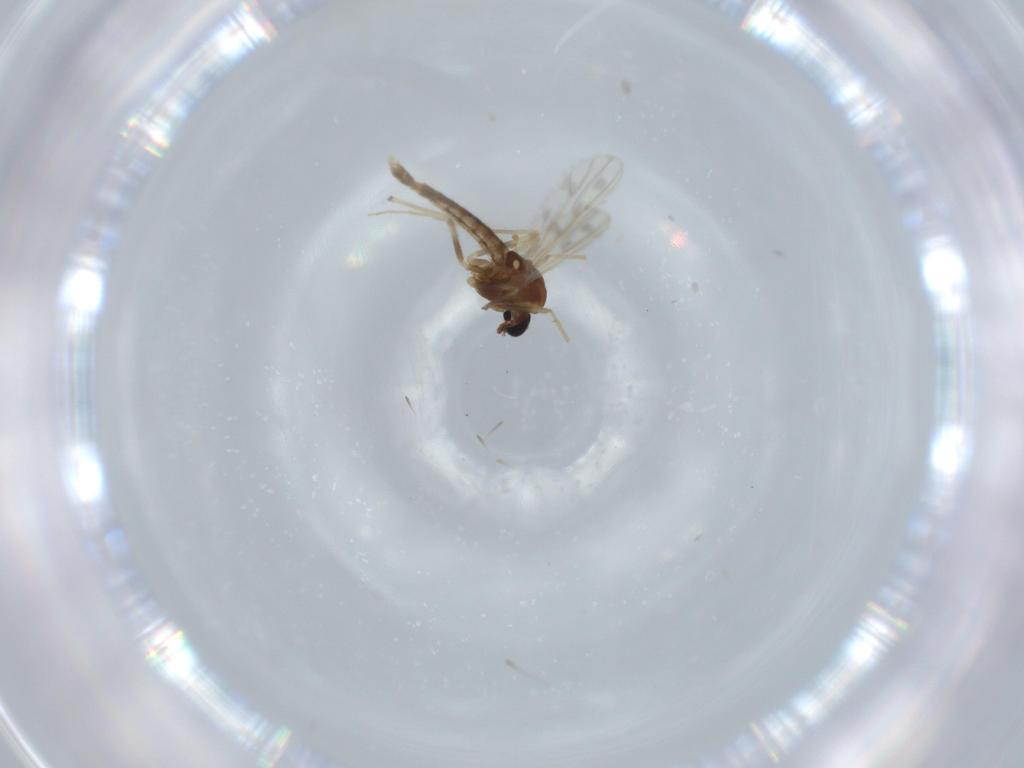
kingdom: Animalia
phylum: Arthropoda
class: Insecta
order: Diptera
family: Chironomidae
